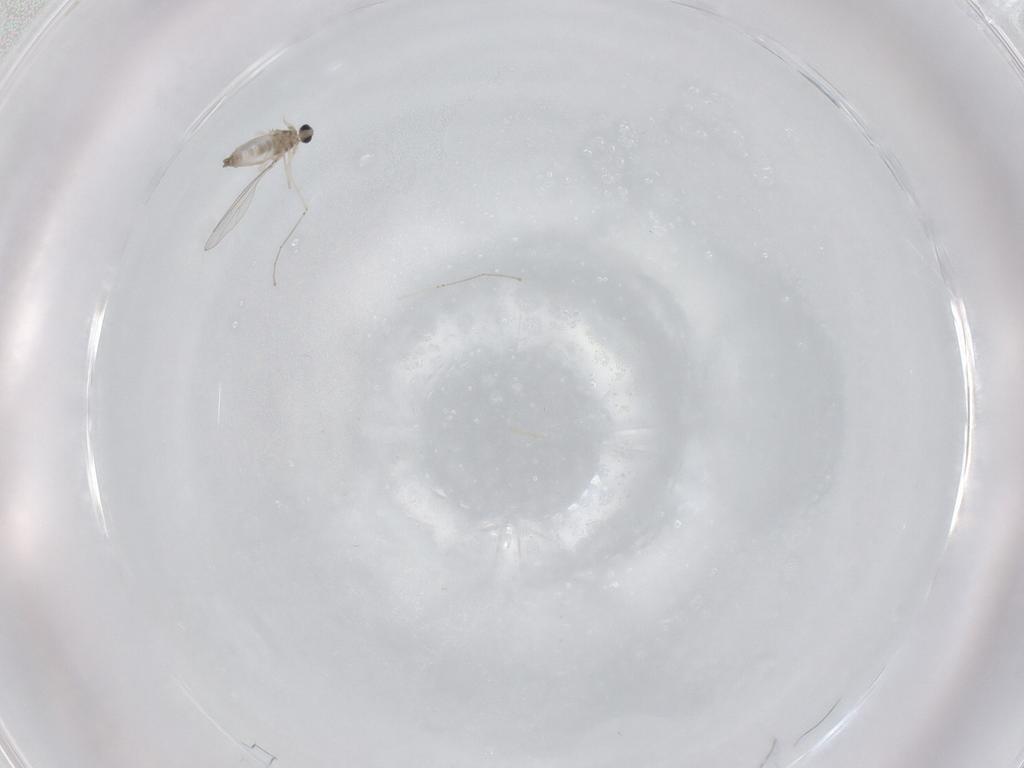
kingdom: Animalia
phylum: Arthropoda
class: Insecta
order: Diptera
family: Cecidomyiidae
